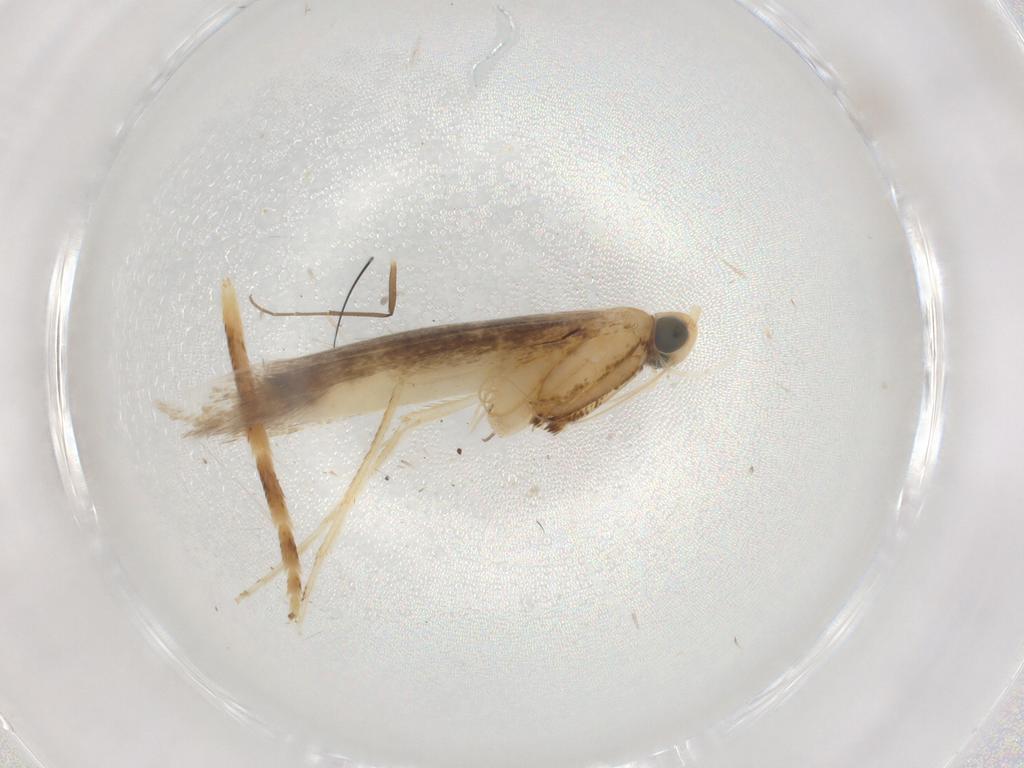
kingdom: Animalia
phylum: Arthropoda
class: Insecta
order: Lepidoptera
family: Gracillariidae
